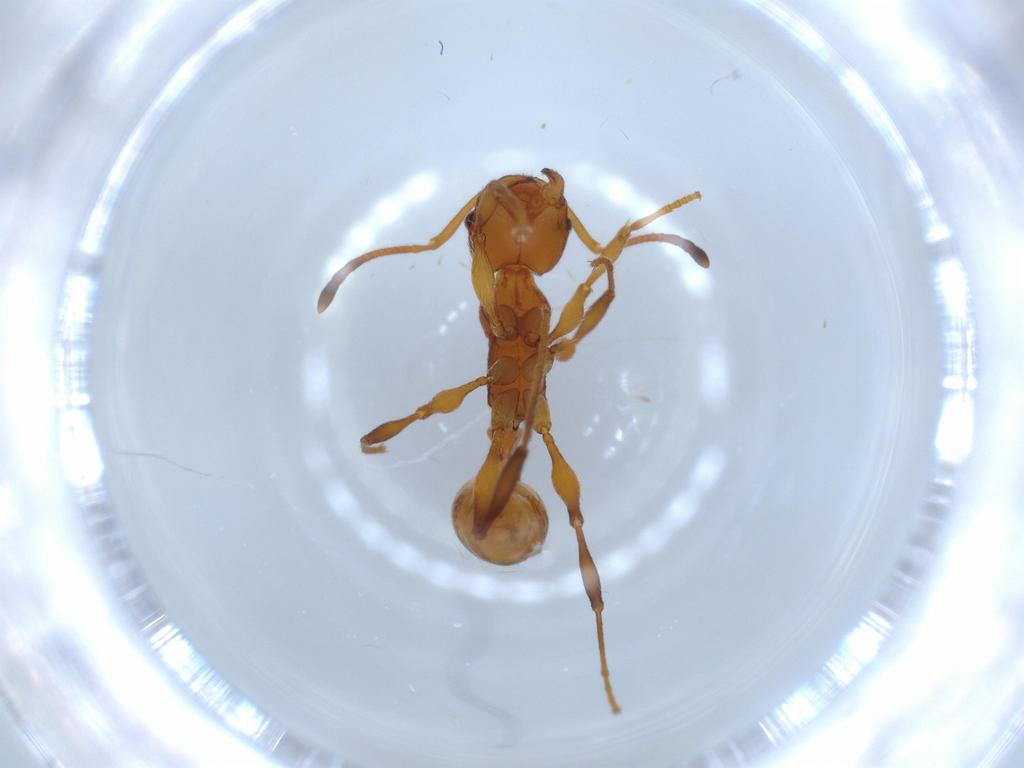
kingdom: Animalia
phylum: Arthropoda
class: Insecta
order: Hymenoptera
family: Formicidae
